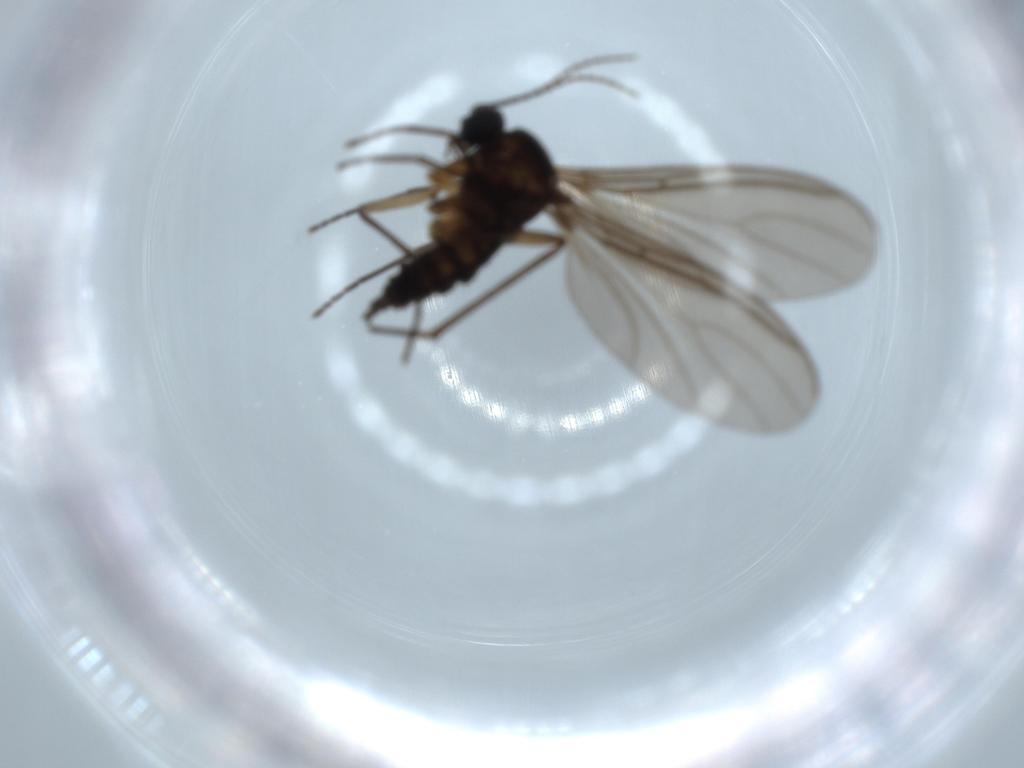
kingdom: Animalia
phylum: Arthropoda
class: Insecta
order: Diptera
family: Sciaridae
